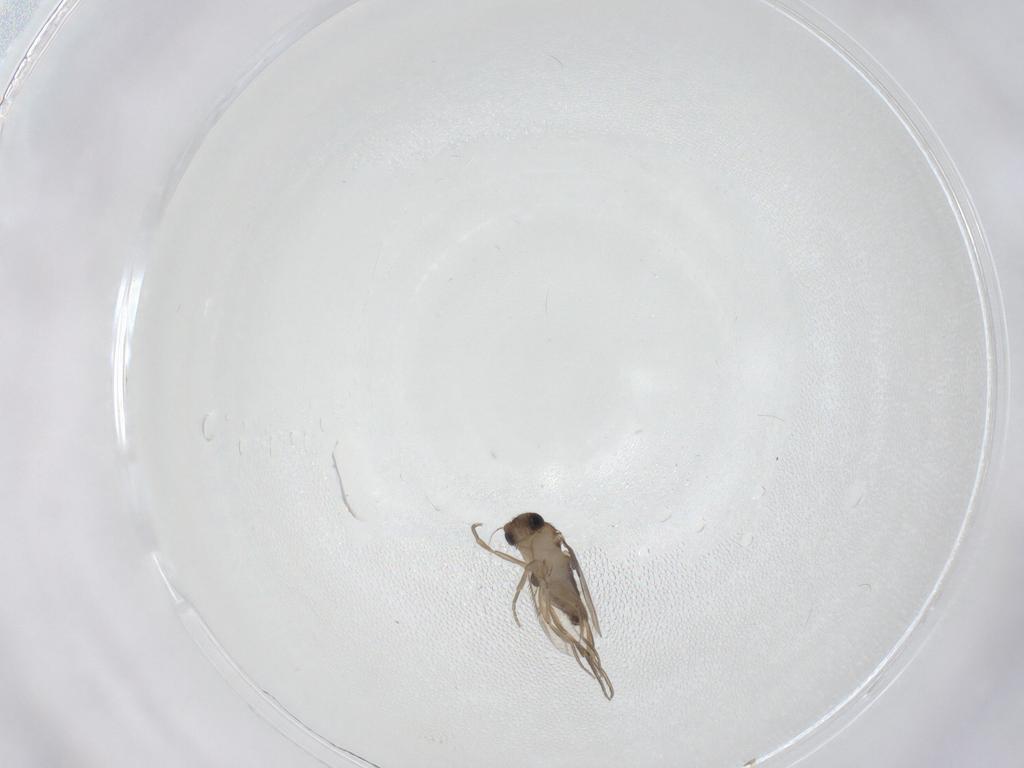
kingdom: Animalia
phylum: Arthropoda
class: Insecta
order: Diptera
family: Phoridae
